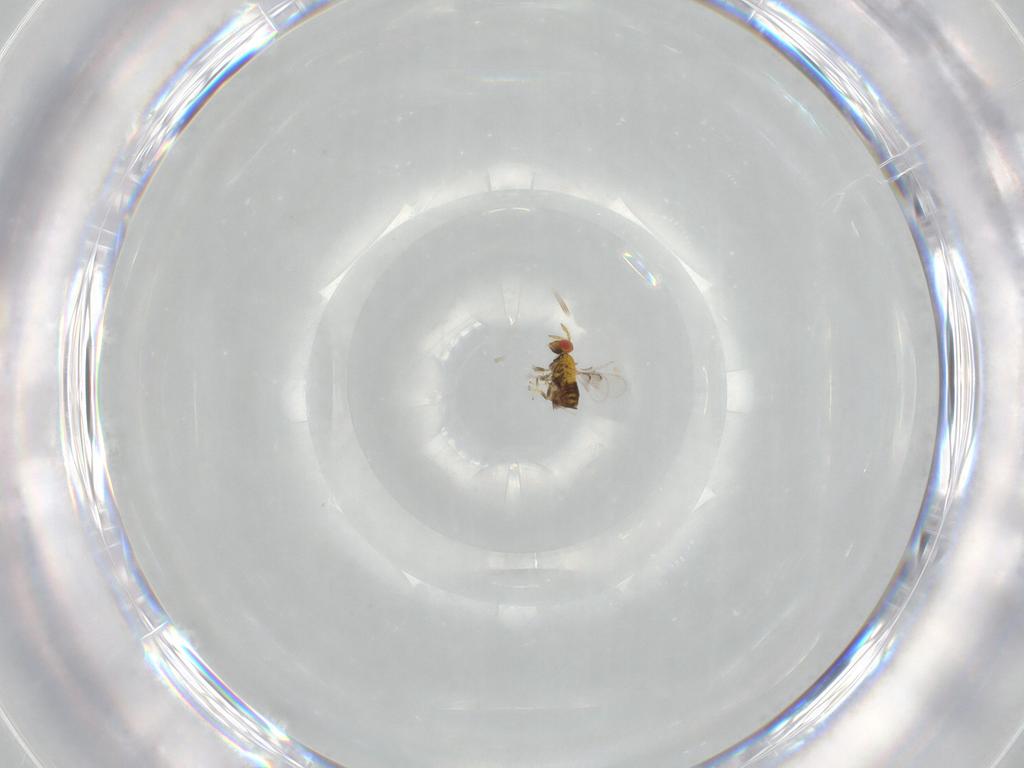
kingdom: Animalia
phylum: Arthropoda
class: Insecta
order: Hymenoptera
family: Trichogrammatidae
